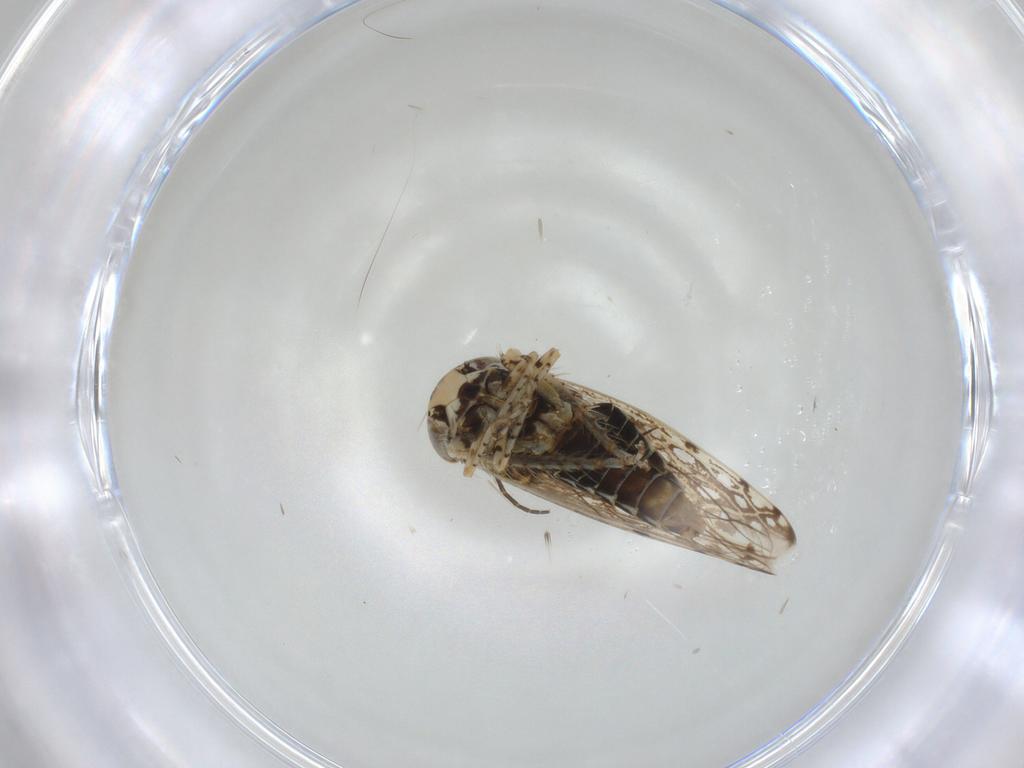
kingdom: Animalia
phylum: Arthropoda
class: Insecta
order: Hemiptera
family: Cicadellidae
